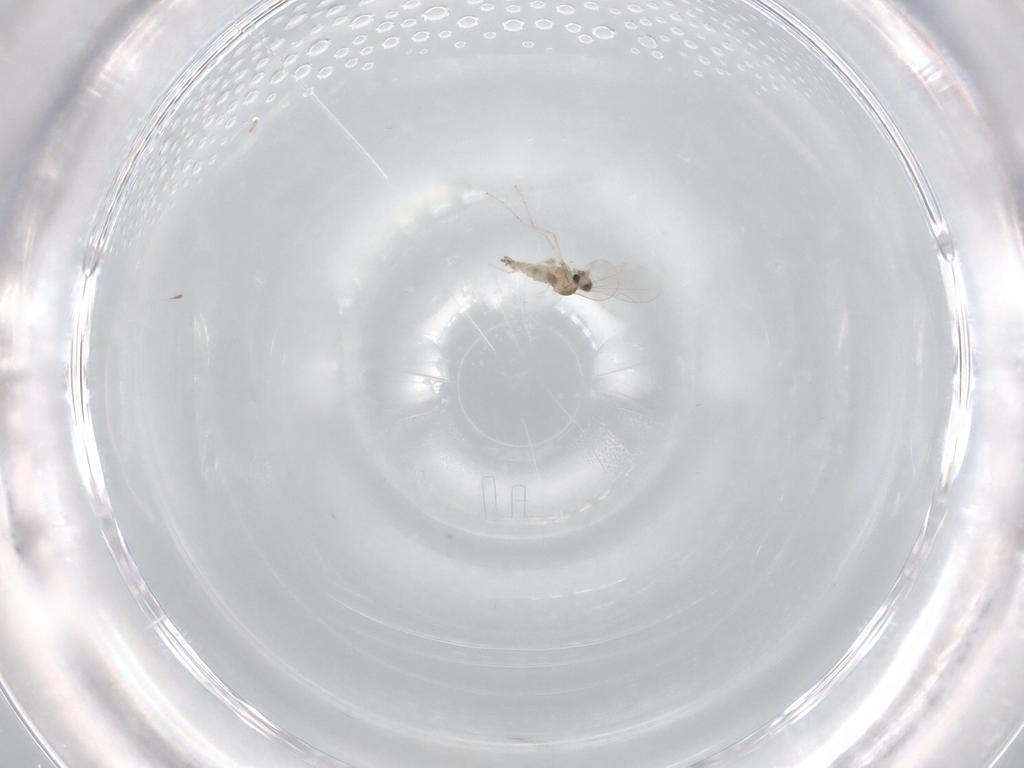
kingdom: Animalia
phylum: Arthropoda
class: Insecta
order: Diptera
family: Cecidomyiidae
